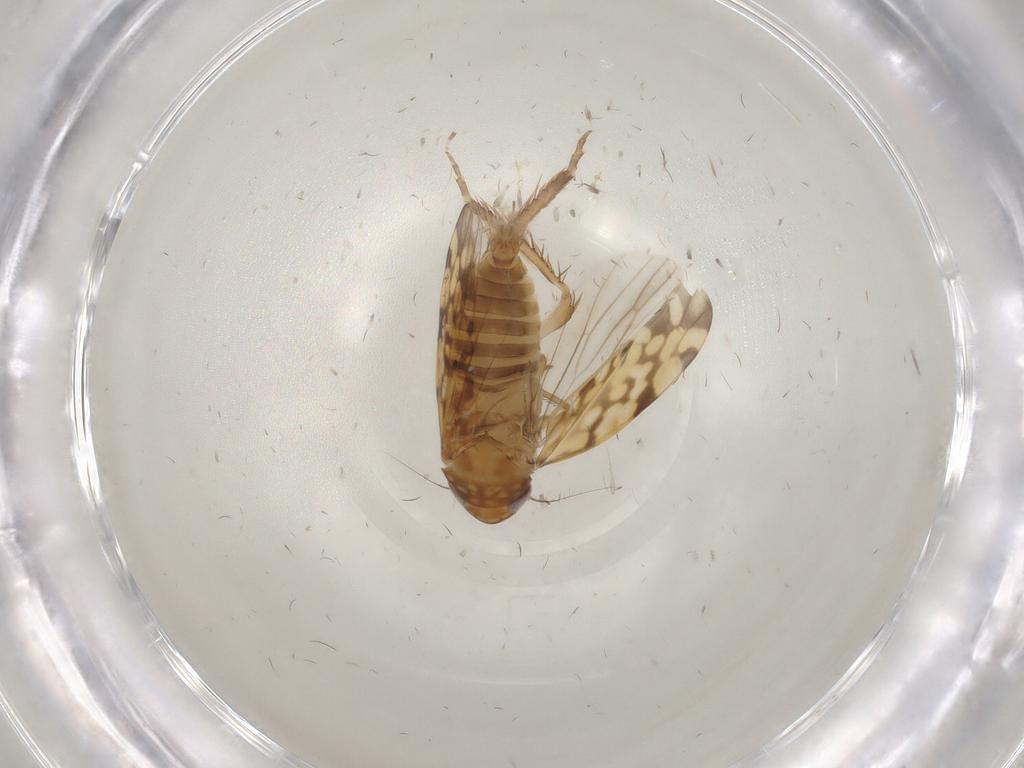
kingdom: Animalia
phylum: Arthropoda
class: Insecta
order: Hemiptera
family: Cicadellidae
